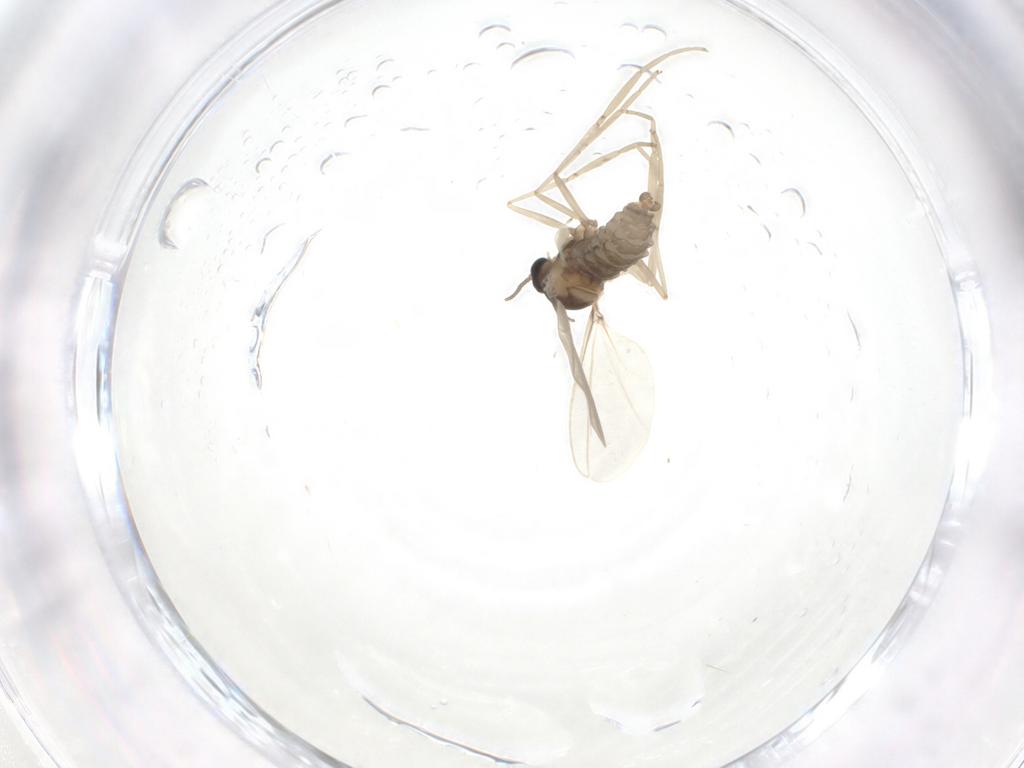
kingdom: Animalia
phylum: Arthropoda
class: Insecta
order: Diptera
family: Cecidomyiidae
